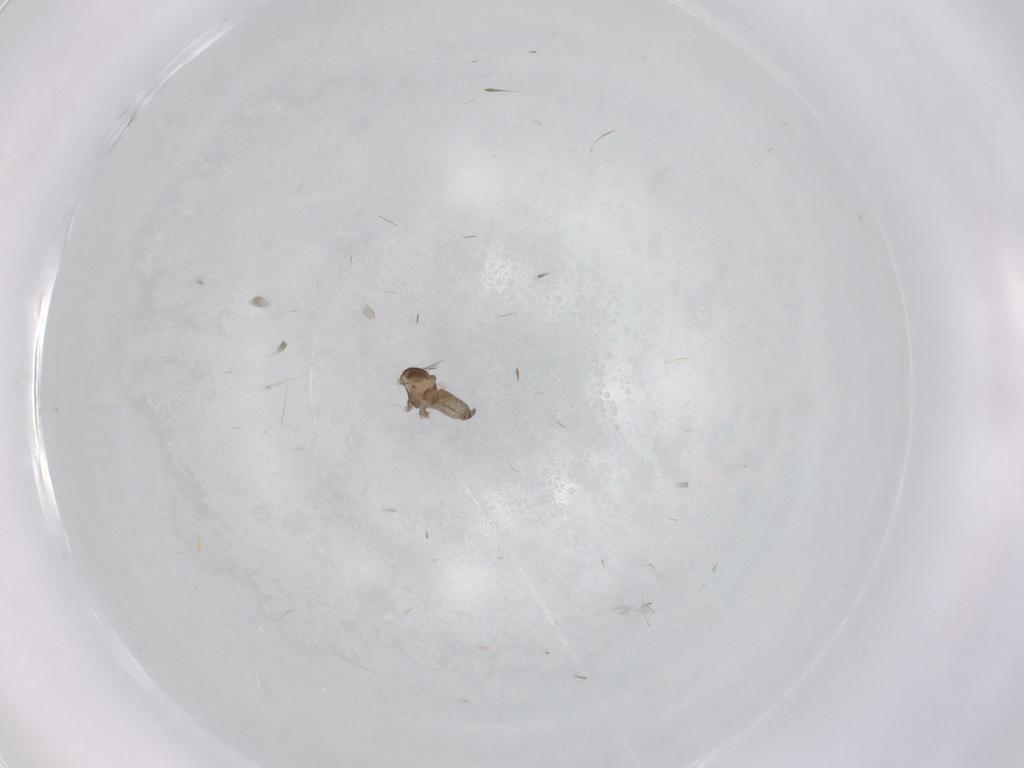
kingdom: Animalia
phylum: Arthropoda
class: Insecta
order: Diptera
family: Cecidomyiidae
